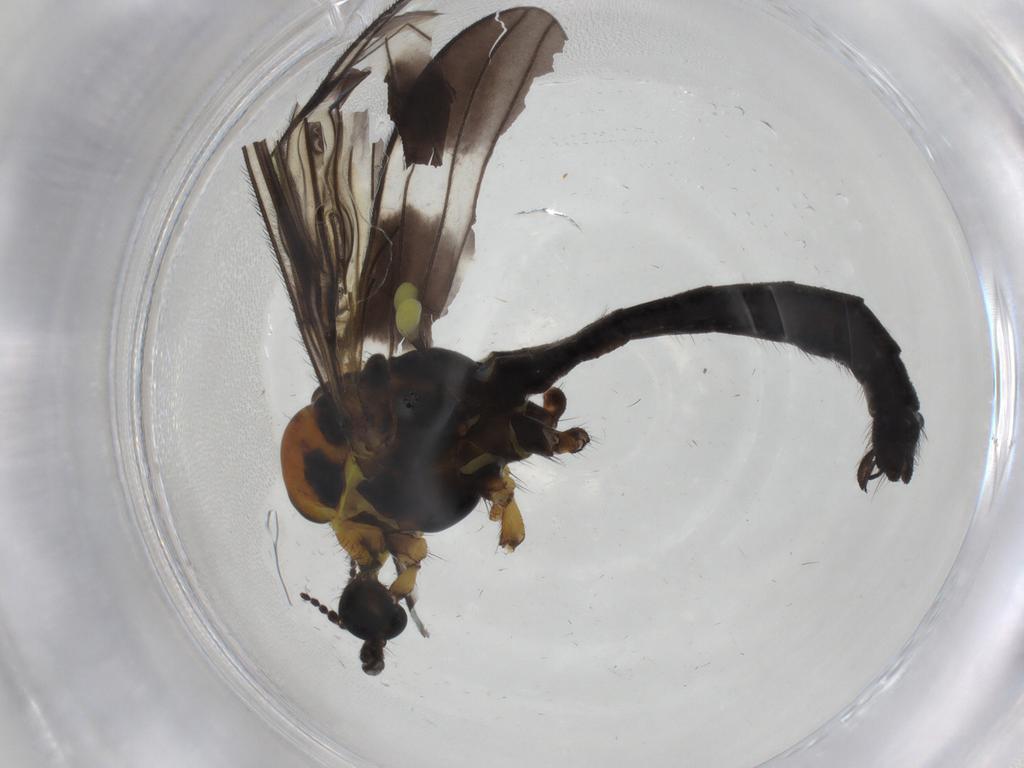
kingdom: Animalia
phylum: Arthropoda
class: Insecta
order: Diptera
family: Limoniidae
